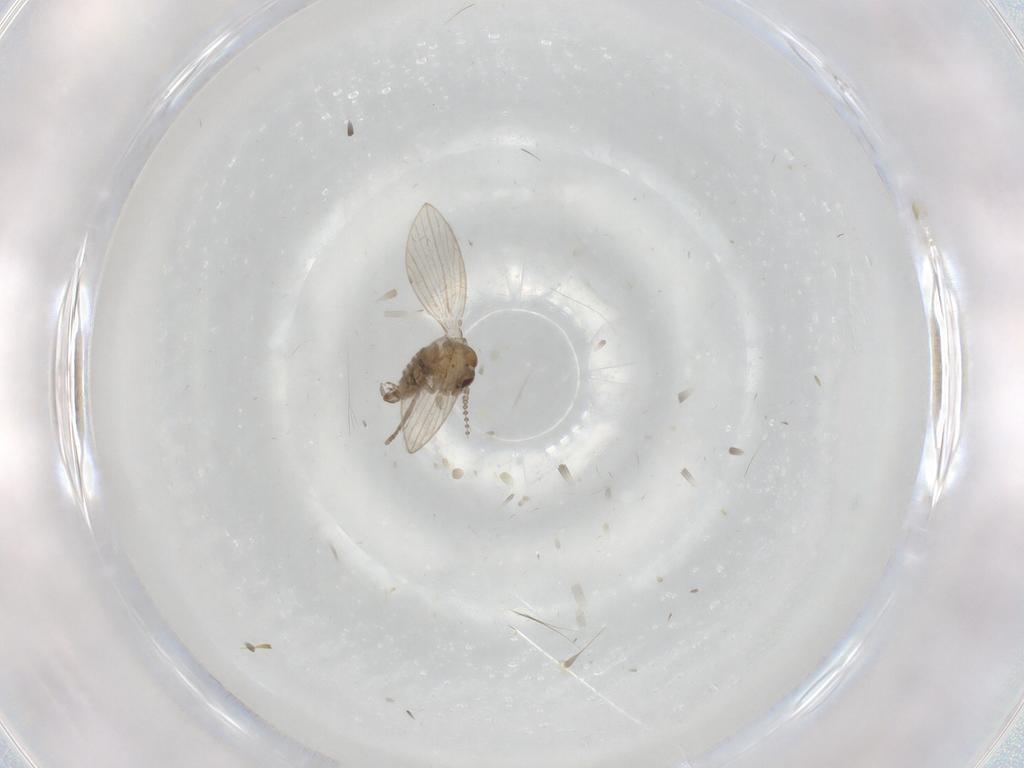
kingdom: Animalia
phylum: Arthropoda
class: Insecta
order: Diptera
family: Psychodidae
